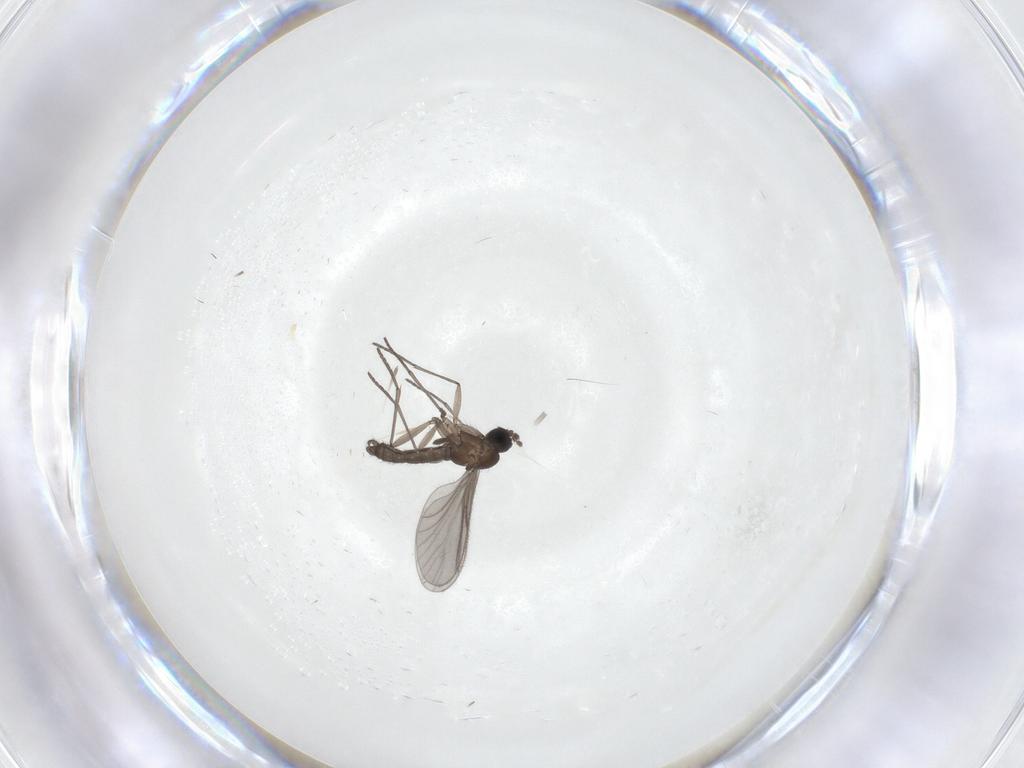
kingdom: Animalia
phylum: Arthropoda
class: Insecta
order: Diptera
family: Sciaridae
